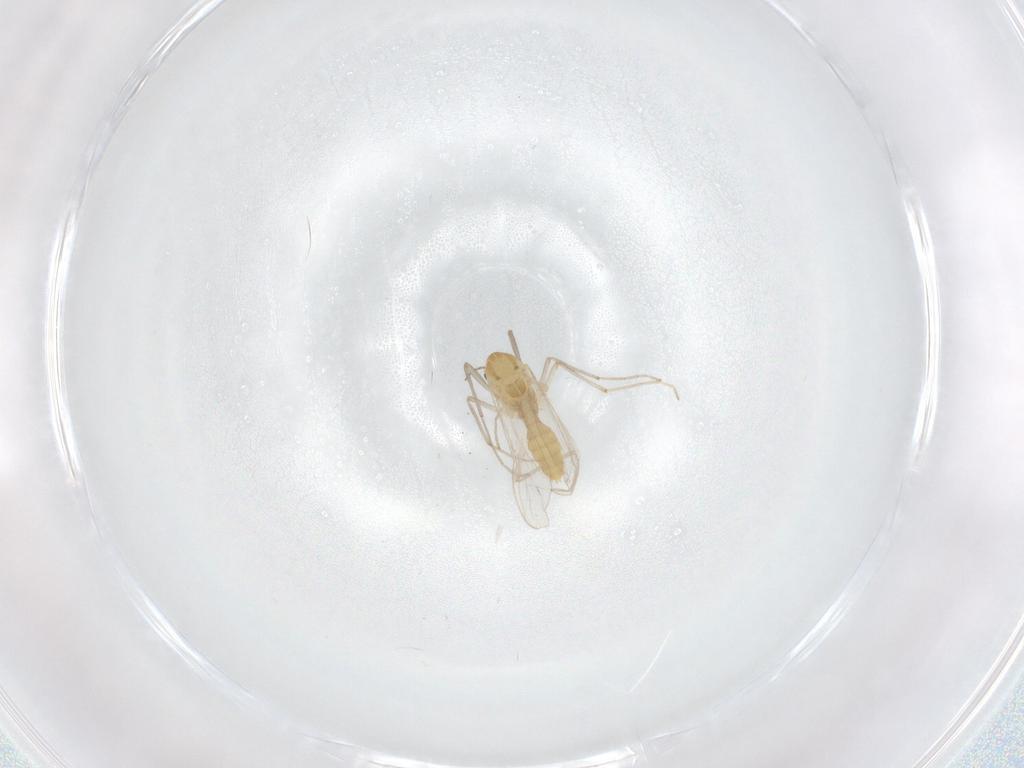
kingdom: Animalia
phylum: Arthropoda
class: Insecta
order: Diptera
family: Chironomidae
